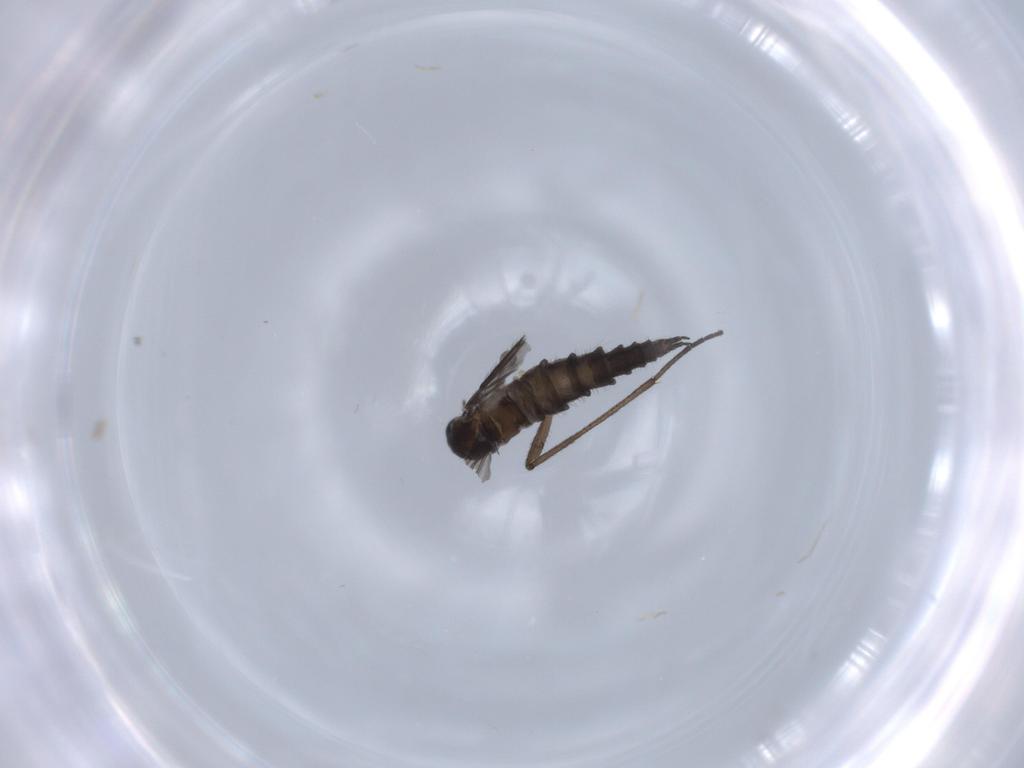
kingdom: Animalia
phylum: Arthropoda
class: Insecta
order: Diptera
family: Sciaridae
